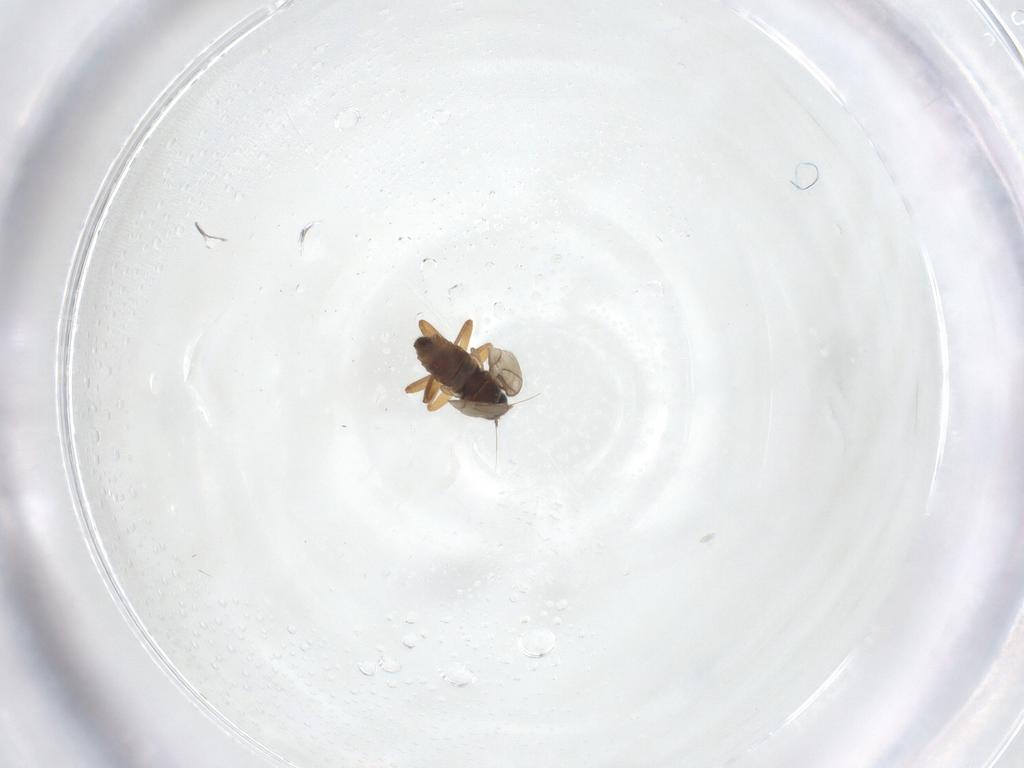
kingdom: Animalia
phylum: Arthropoda
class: Insecta
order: Diptera
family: Hybotidae
